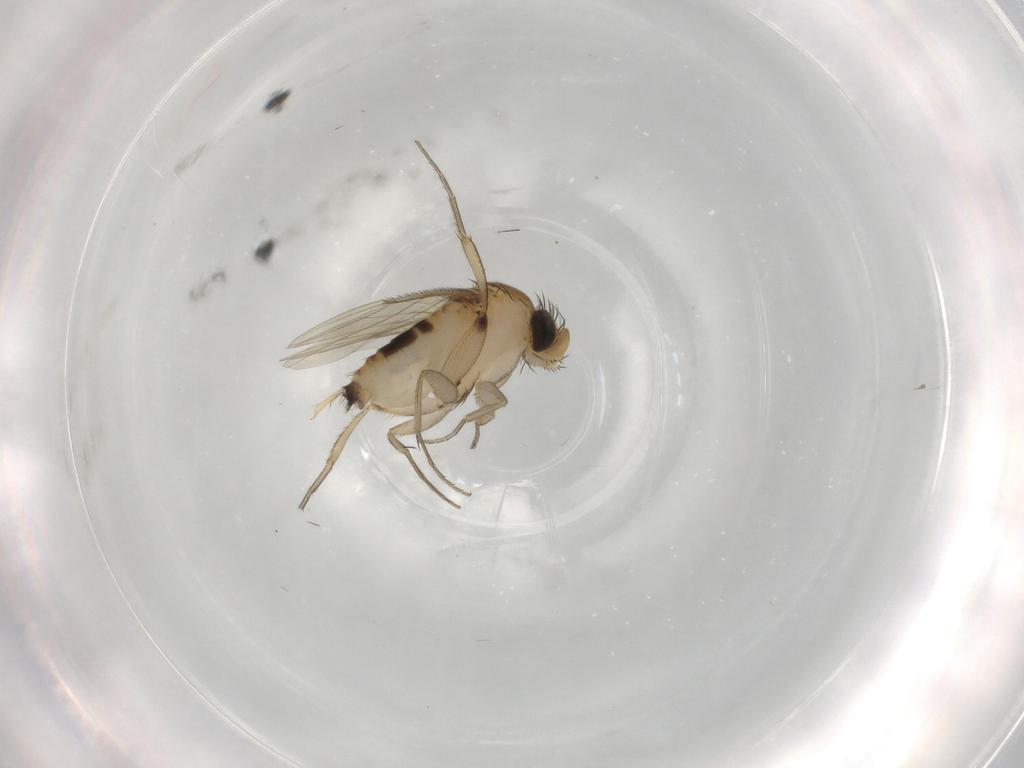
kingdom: Animalia
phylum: Arthropoda
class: Insecta
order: Diptera
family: Phoridae
